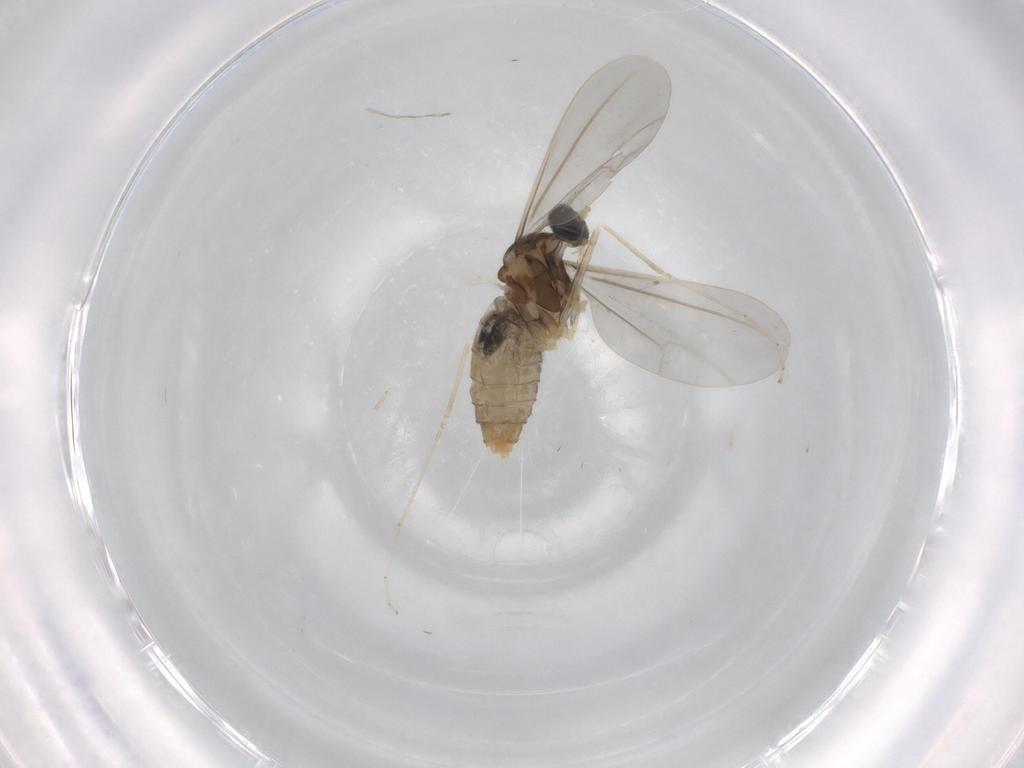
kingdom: Animalia
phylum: Arthropoda
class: Insecta
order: Diptera
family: Cecidomyiidae
